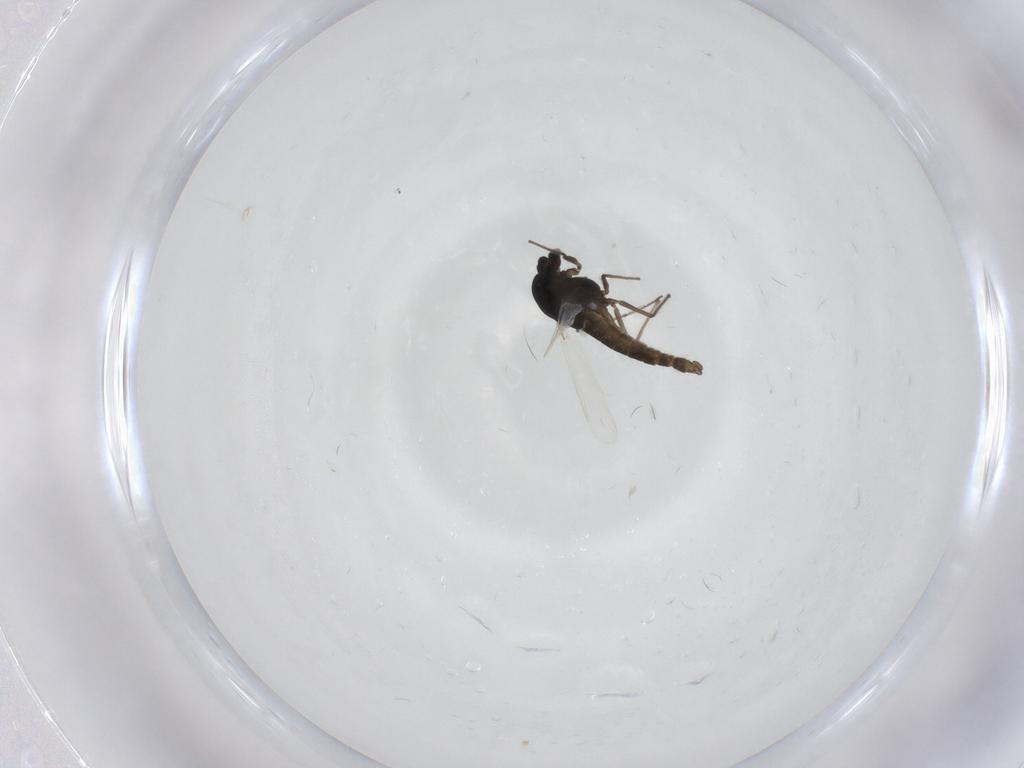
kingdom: Animalia
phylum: Arthropoda
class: Insecta
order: Diptera
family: Chironomidae
